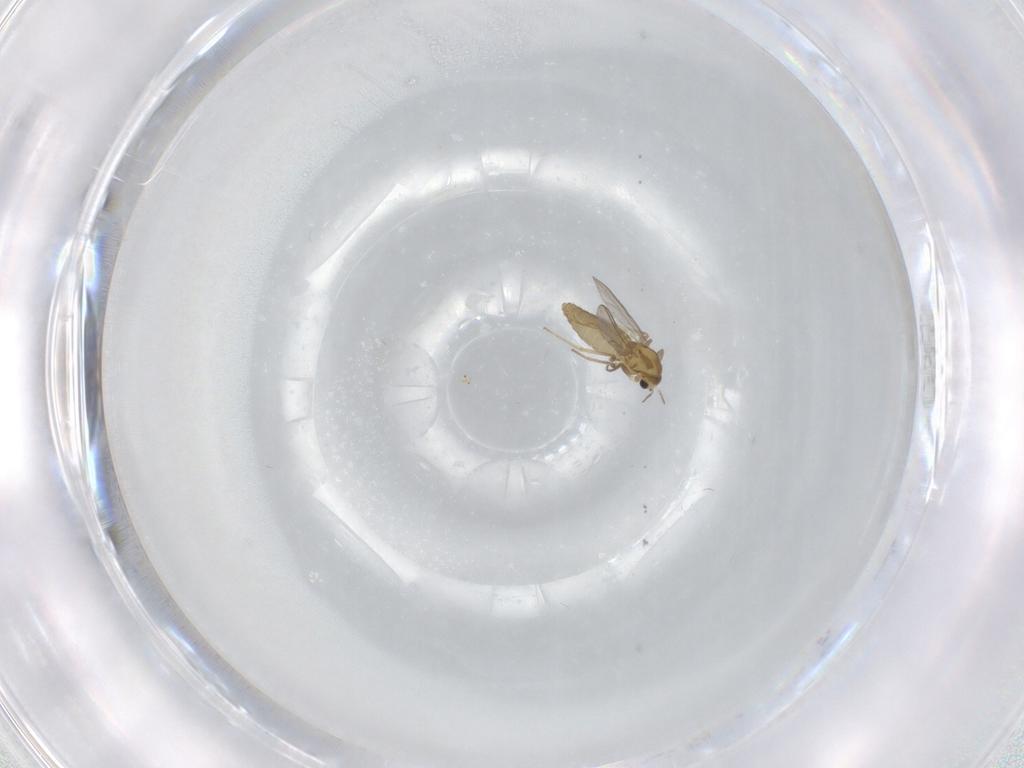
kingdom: Animalia
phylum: Arthropoda
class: Insecta
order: Diptera
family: Chironomidae
